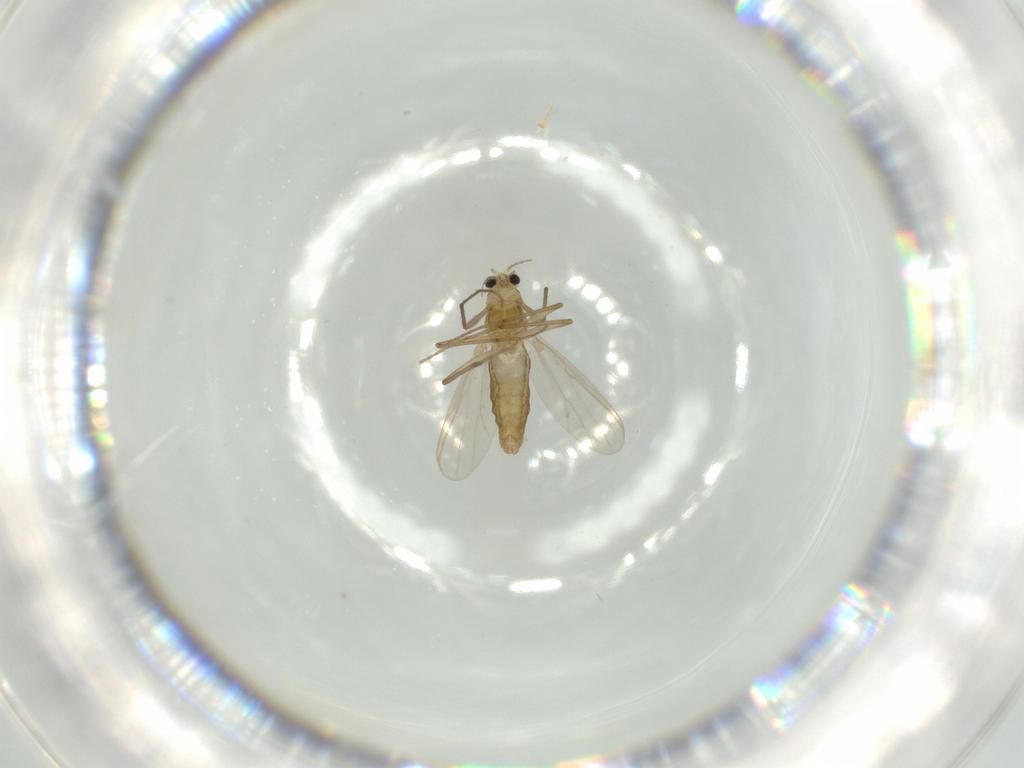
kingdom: Animalia
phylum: Arthropoda
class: Insecta
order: Diptera
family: Chironomidae
